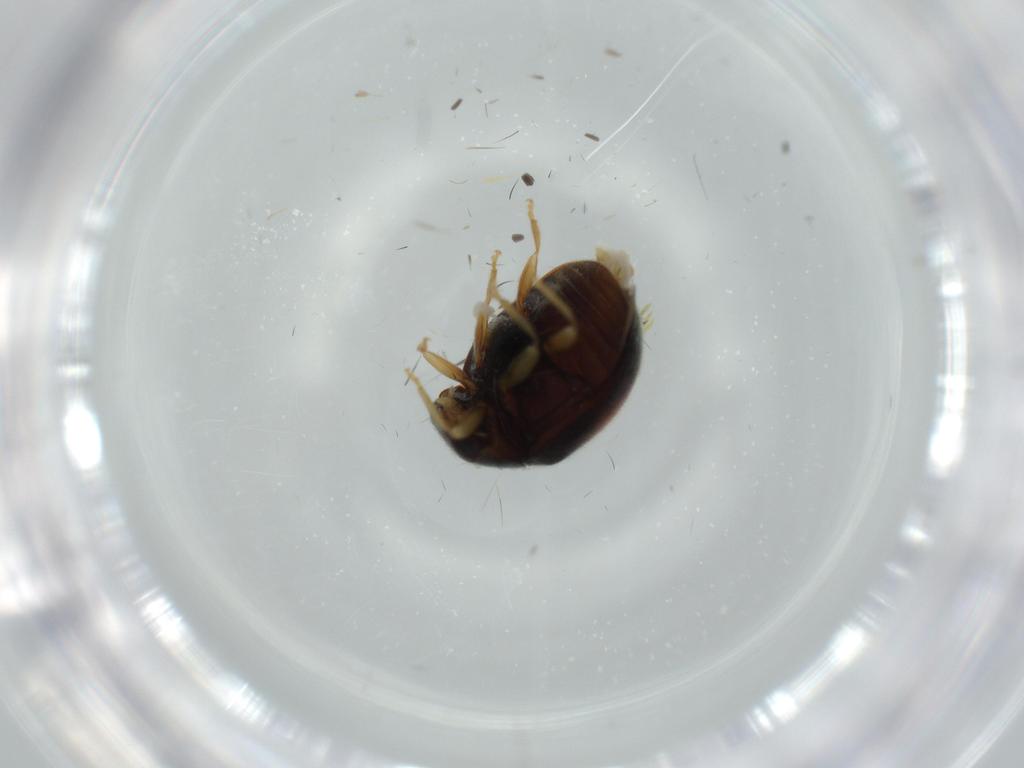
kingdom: Animalia
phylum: Arthropoda
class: Insecta
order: Coleoptera
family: Coccinellidae
